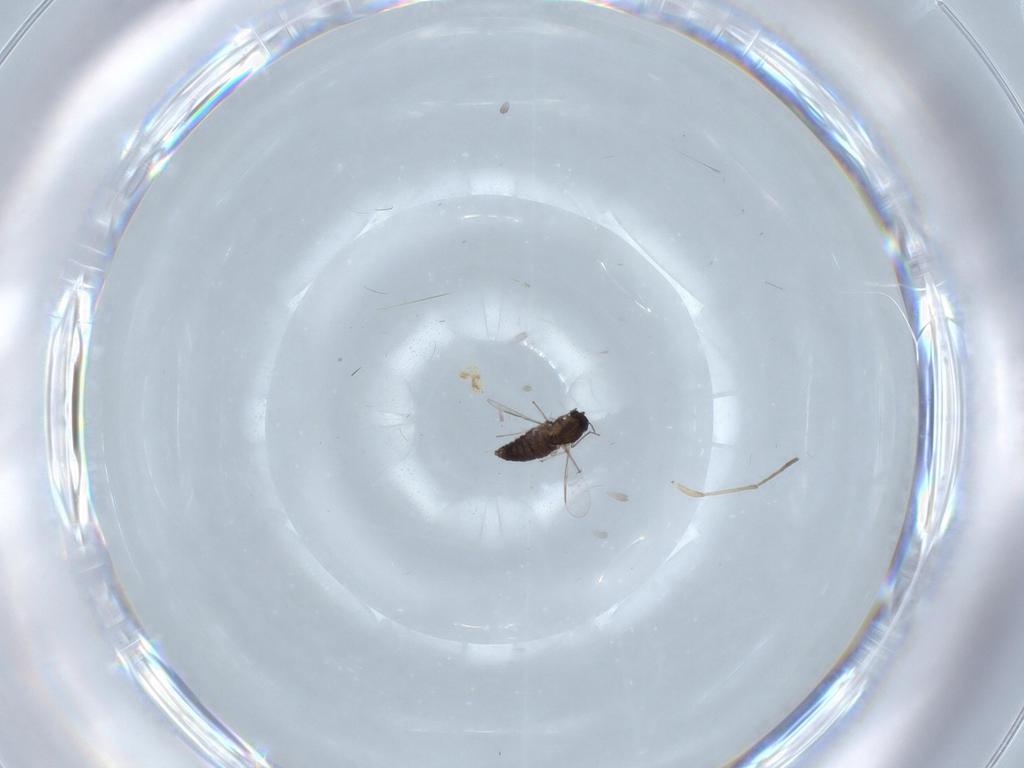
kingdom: Animalia
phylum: Arthropoda
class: Insecta
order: Diptera
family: Chironomidae
